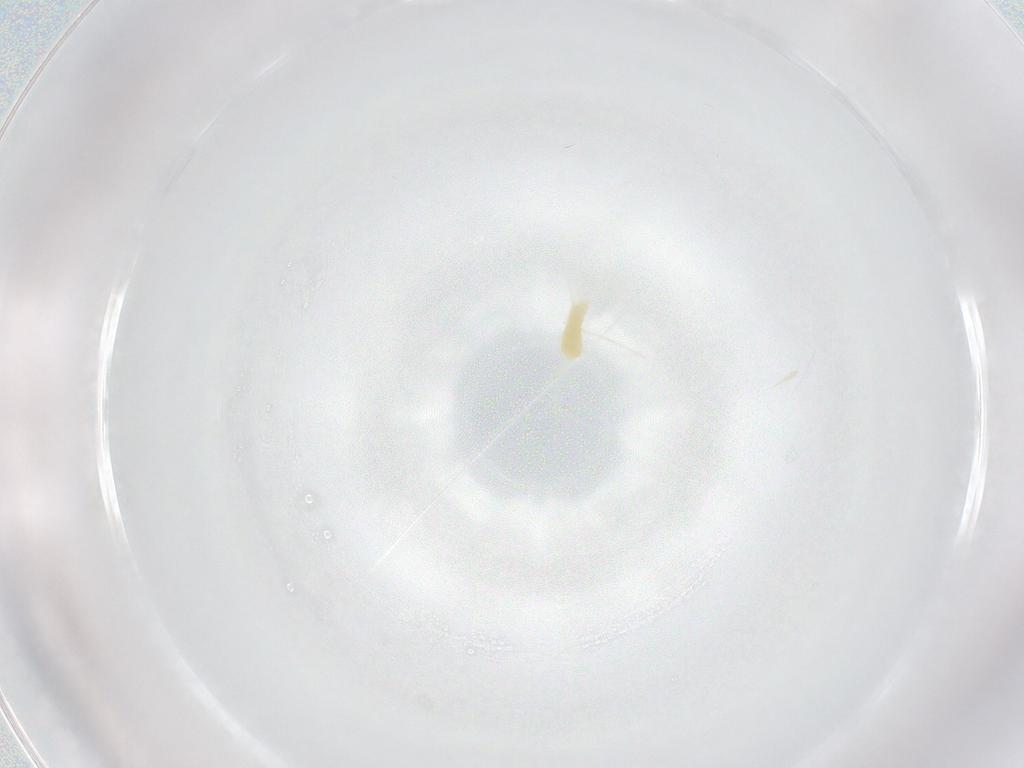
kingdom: Animalia
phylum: Arthropoda
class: Arachnida
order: Trombidiformes
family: Tetranychidae
